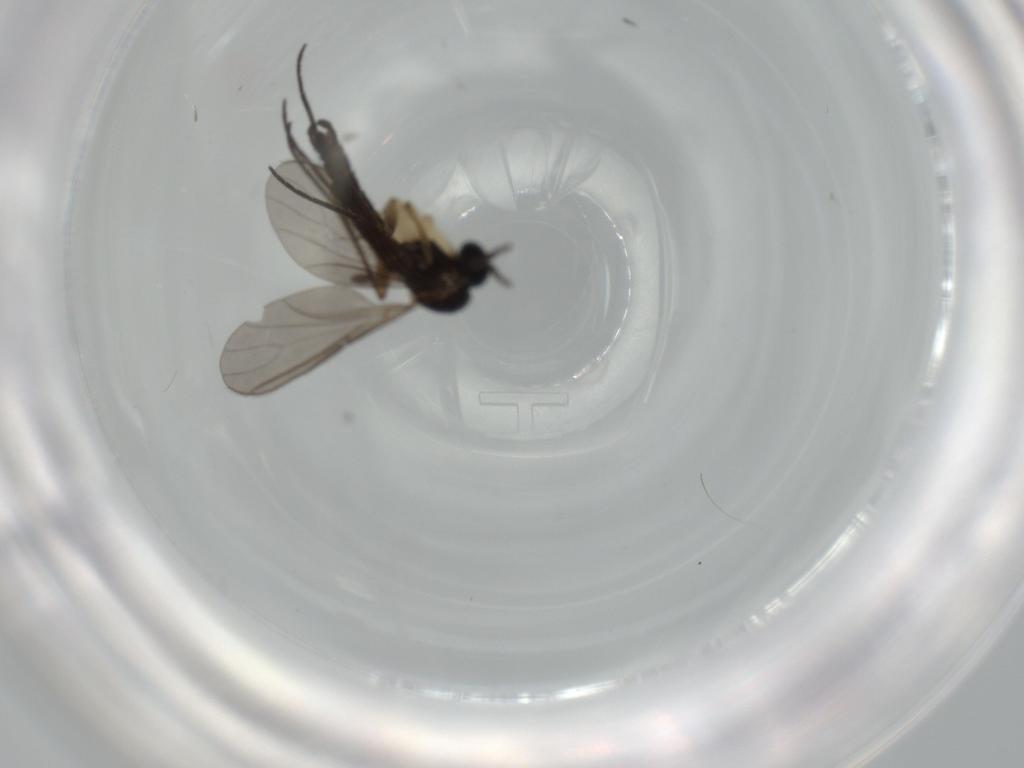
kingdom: Animalia
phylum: Arthropoda
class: Insecta
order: Diptera
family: Sciaridae
